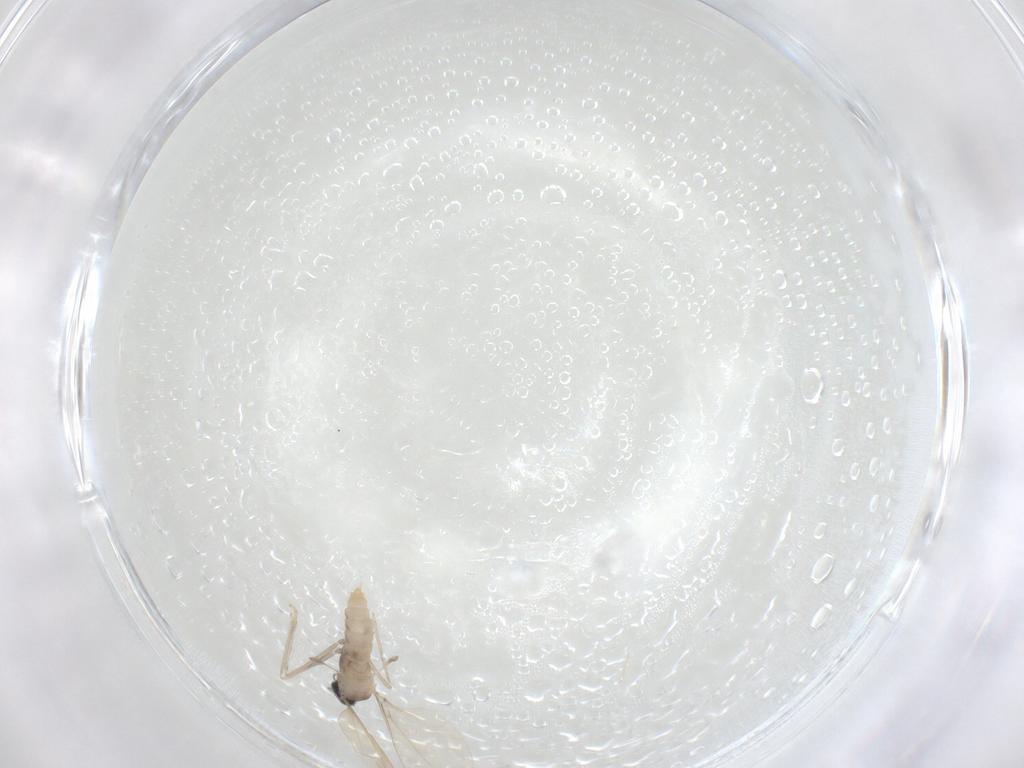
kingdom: Animalia
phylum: Arthropoda
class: Insecta
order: Diptera
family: Cecidomyiidae
